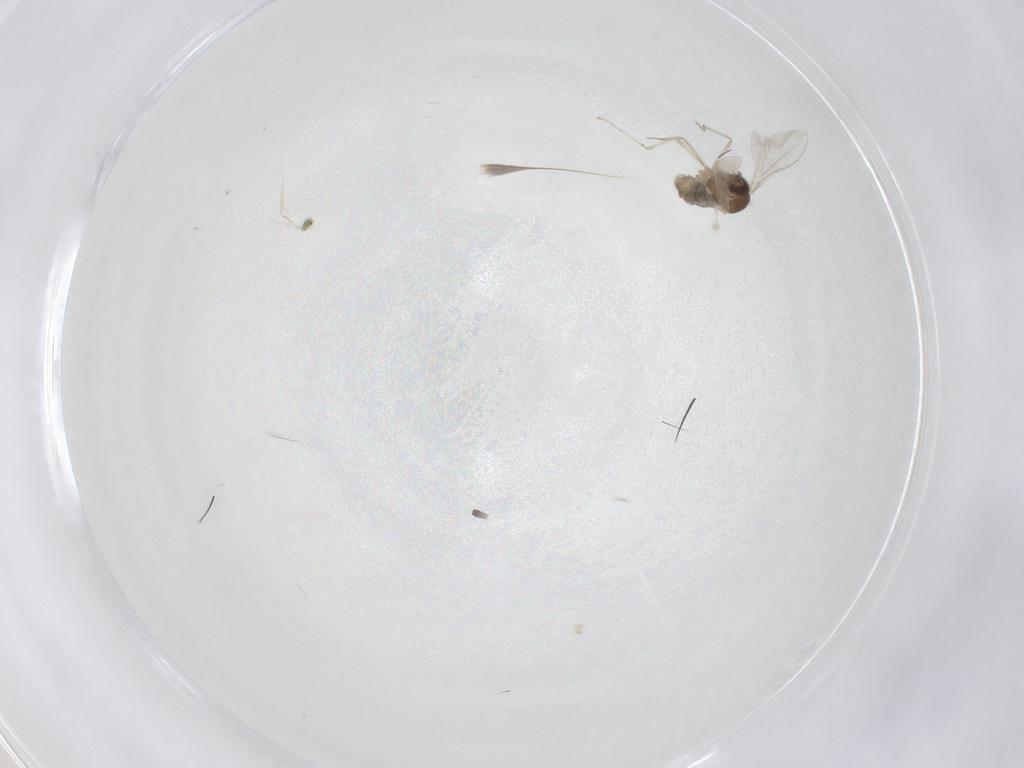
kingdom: Animalia
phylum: Arthropoda
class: Insecta
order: Diptera
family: Cecidomyiidae
